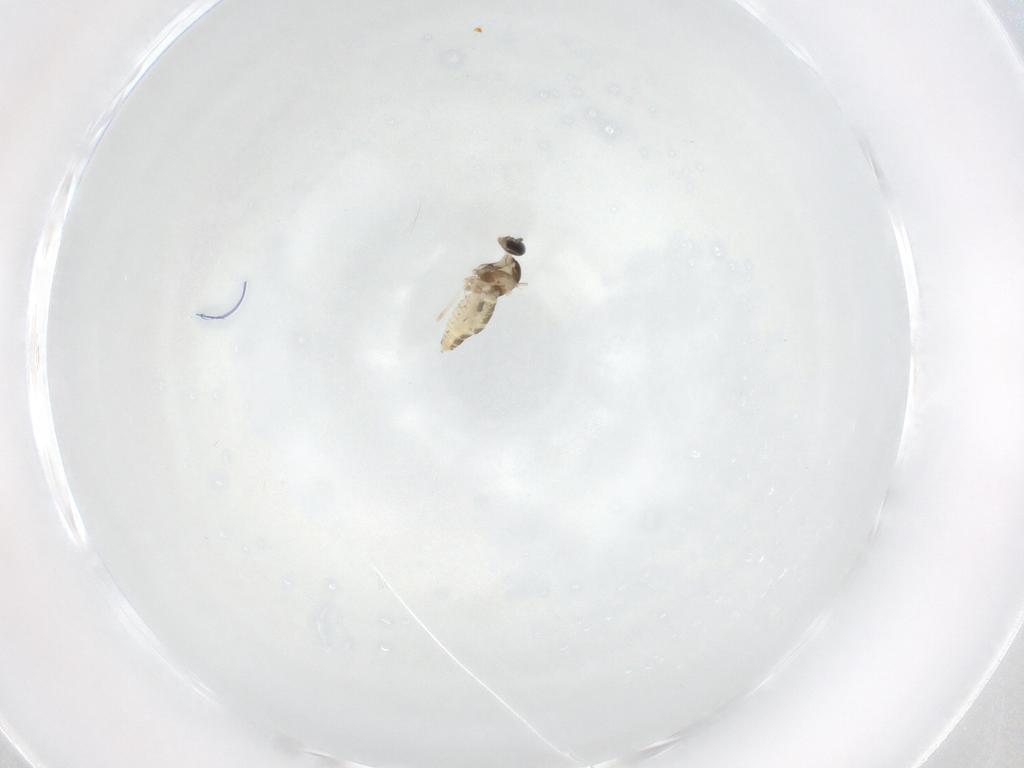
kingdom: Animalia
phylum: Arthropoda
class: Insecta
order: Diptera
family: Cecidomyiidae
